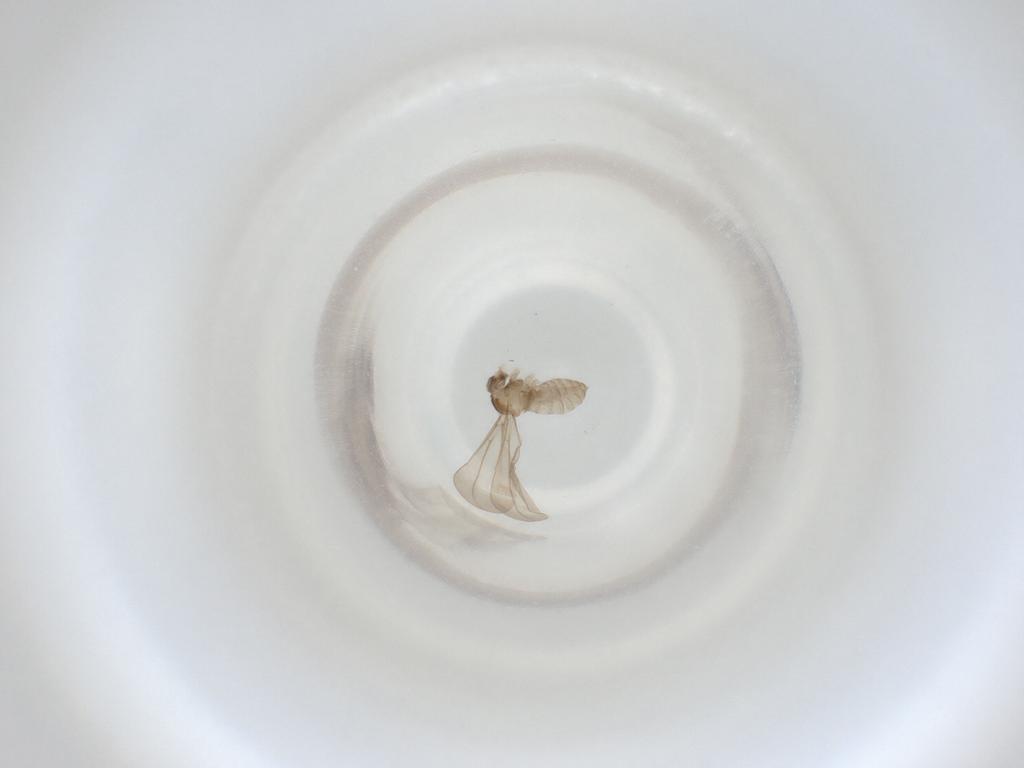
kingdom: Animalia
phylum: Arthropoda
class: Insecta
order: Diptera
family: Cecidomyiidae
